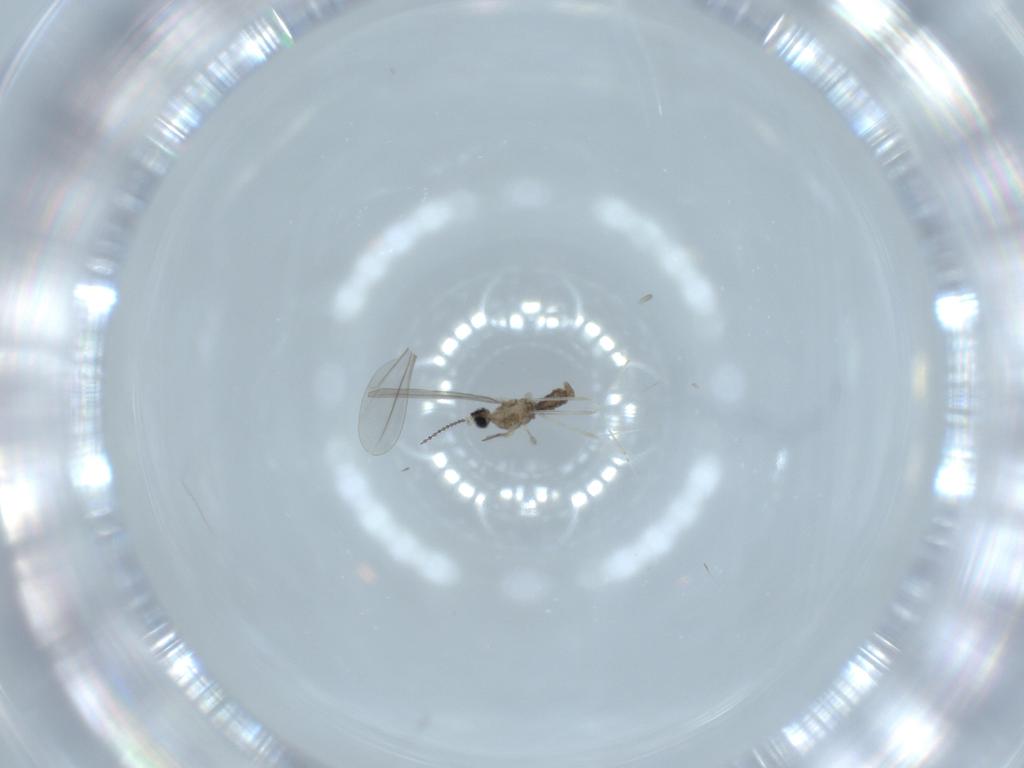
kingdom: Animalia
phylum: Arthropoda
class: Insecta
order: Diptera
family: Cecidomyiidae
